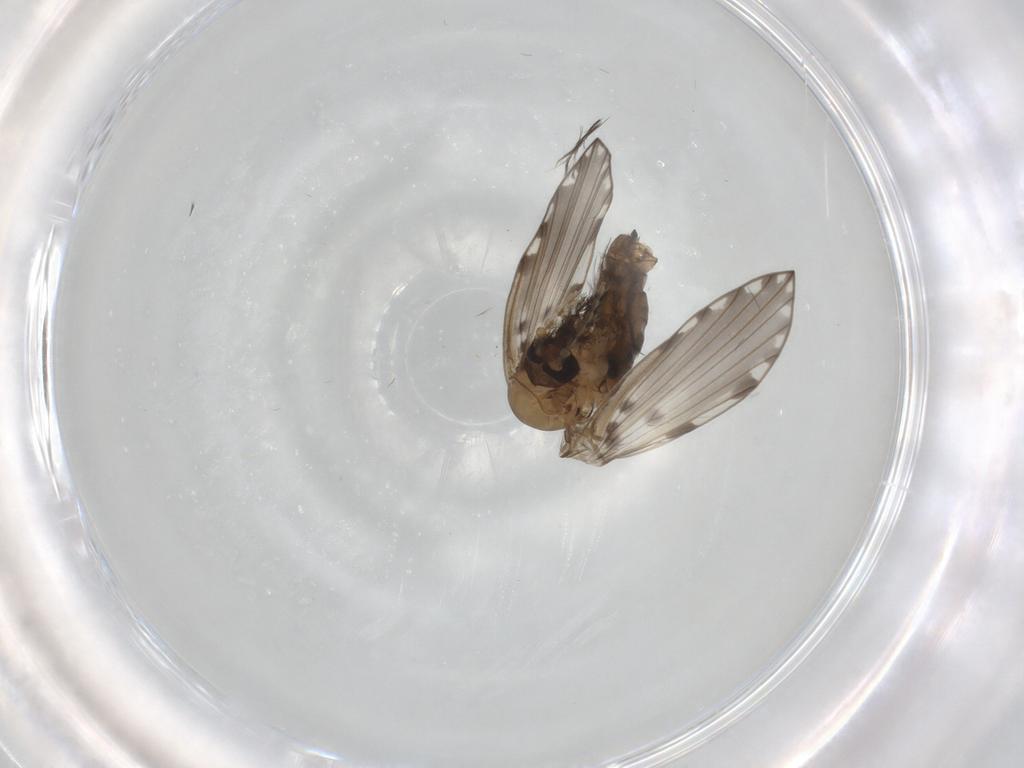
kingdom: Animalia
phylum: Arthropoda
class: Insecta
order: Diptera
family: Psychodidae
